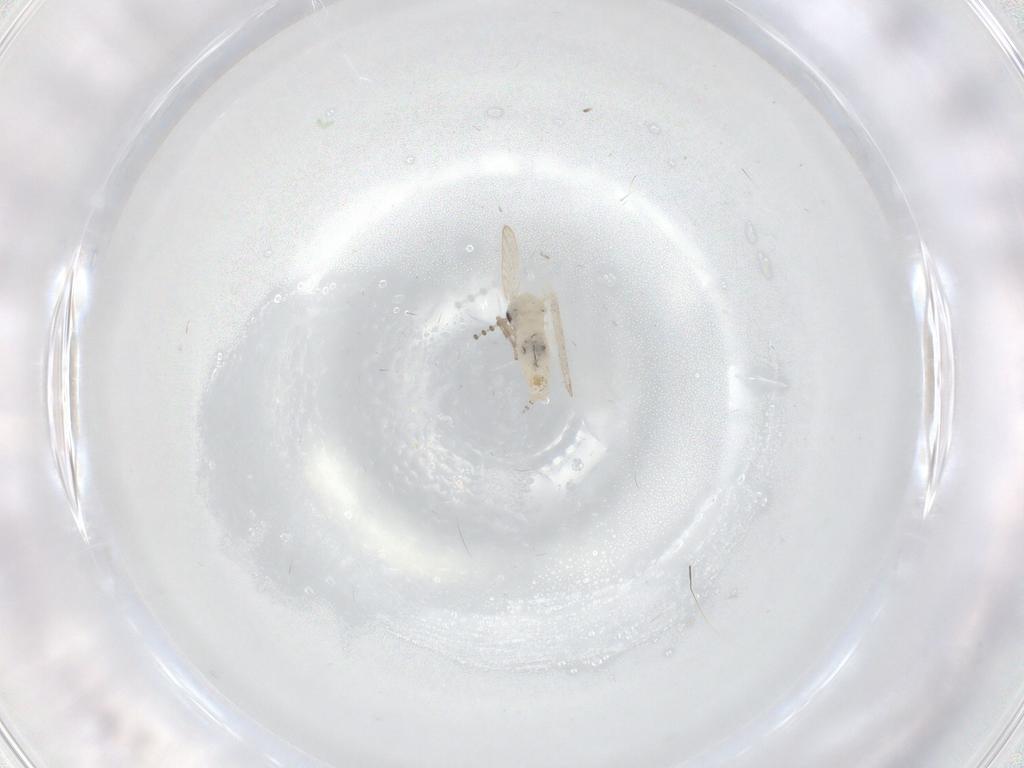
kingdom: Animalia
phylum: Arthropoda
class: Insecta
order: Diptera
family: Psychodidae
